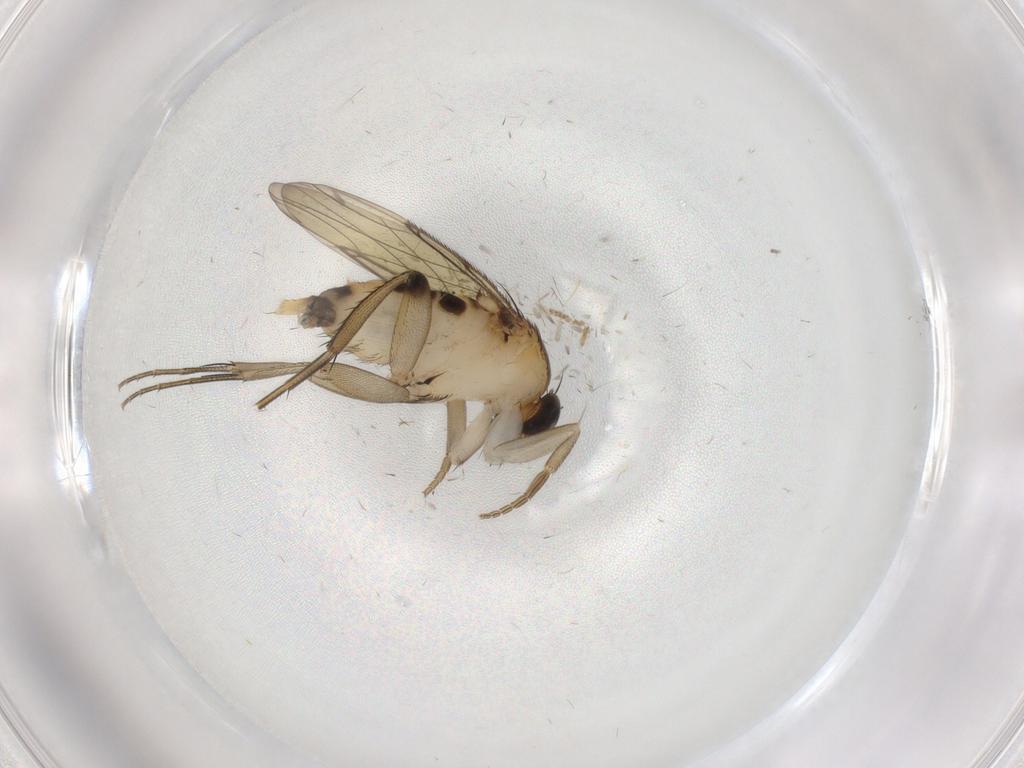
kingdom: Animalia
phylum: Arthropoda
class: Insecta
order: Diptera
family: Phoridae
